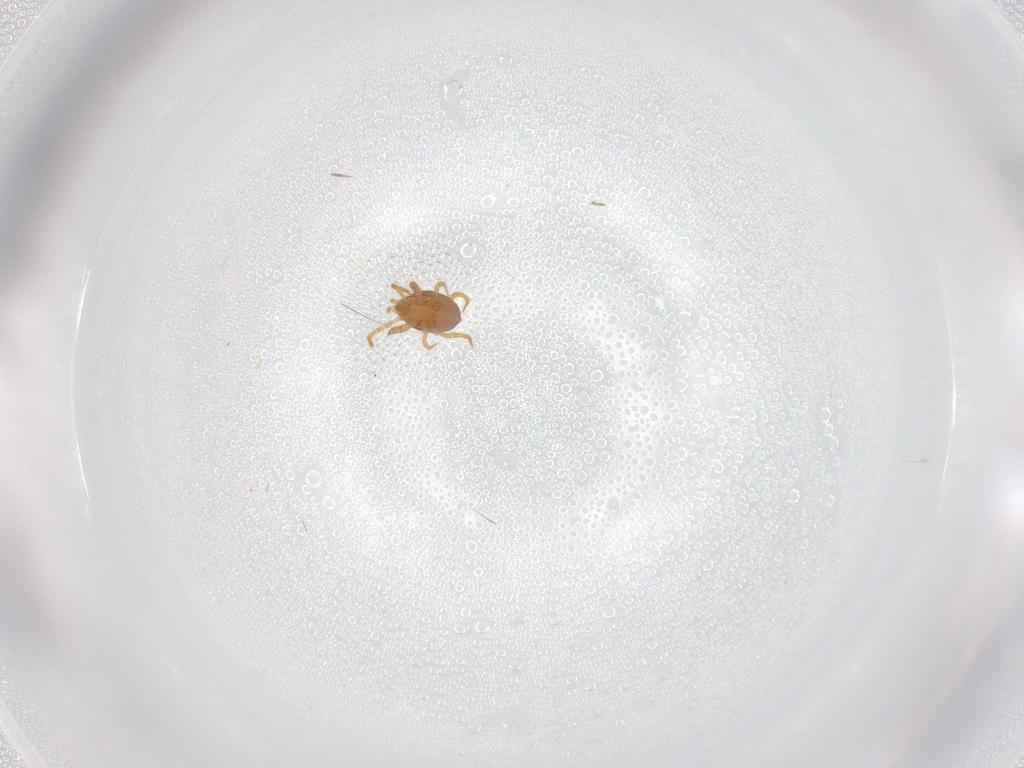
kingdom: Animalia
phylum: Arthropoda
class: Arachnida
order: Mesostigmata
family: Parasitidae
